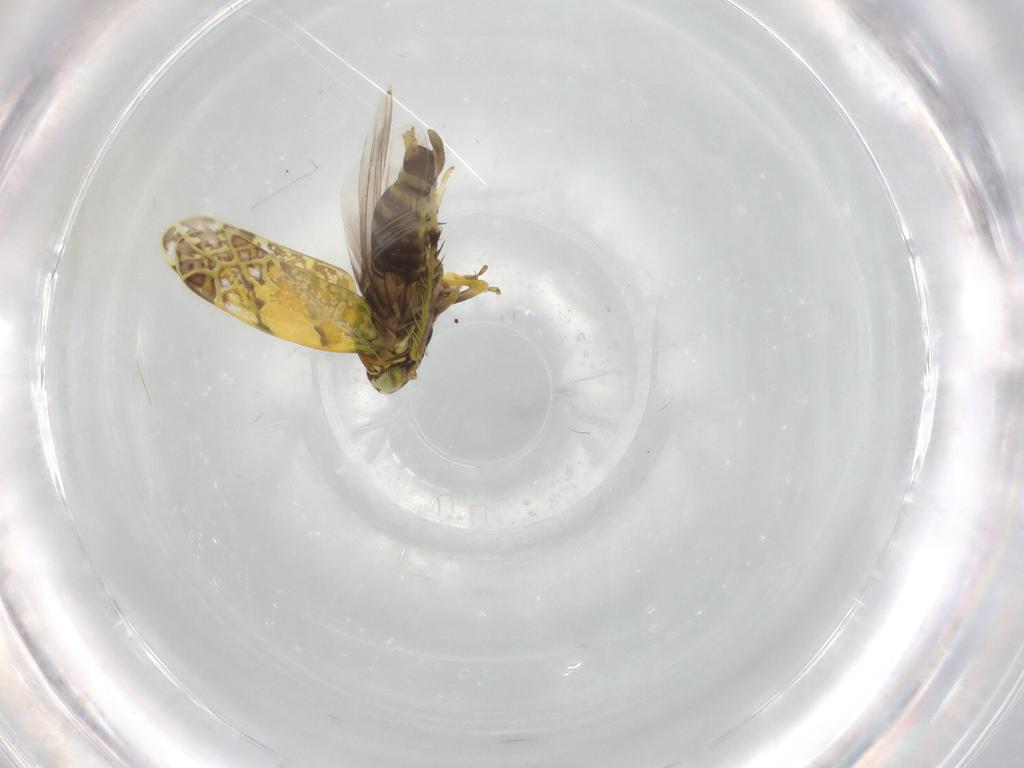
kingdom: Animalia
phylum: Arthropoda
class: Insecta
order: Hemiptera
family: Cicadellidae
